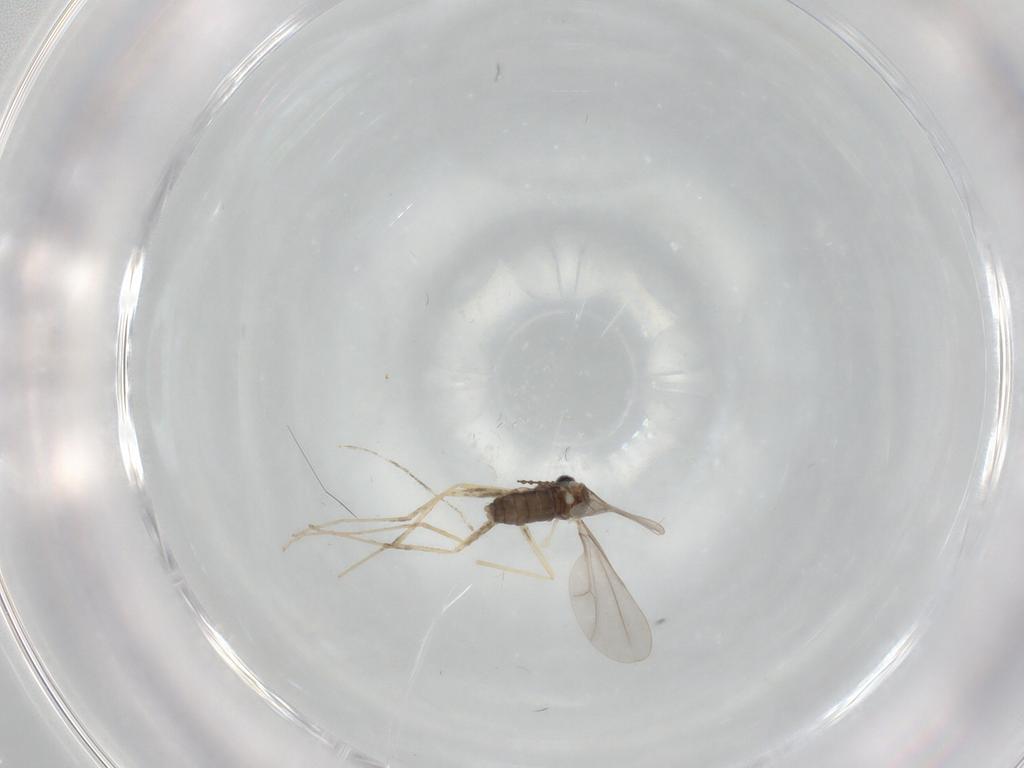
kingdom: Animalia
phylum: Arthropoda
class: Insecta
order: Diptera
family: Cecidomyiidae
